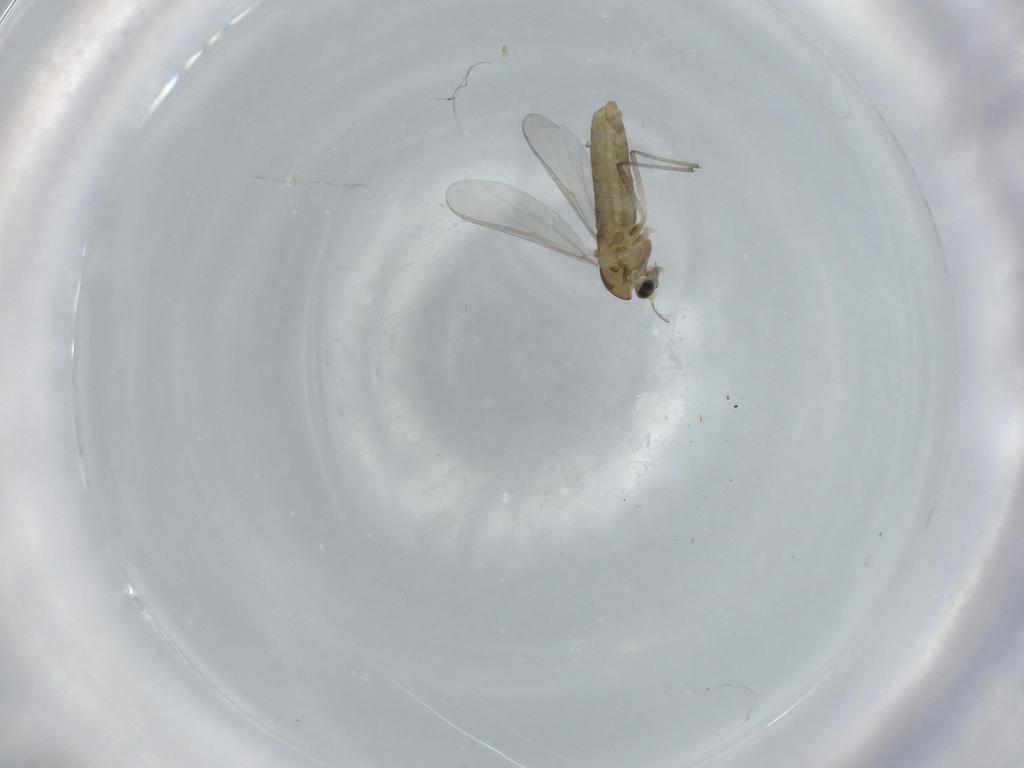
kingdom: Animalia
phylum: Arthropoda
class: Insecta
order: Diptera
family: Chironomidae
